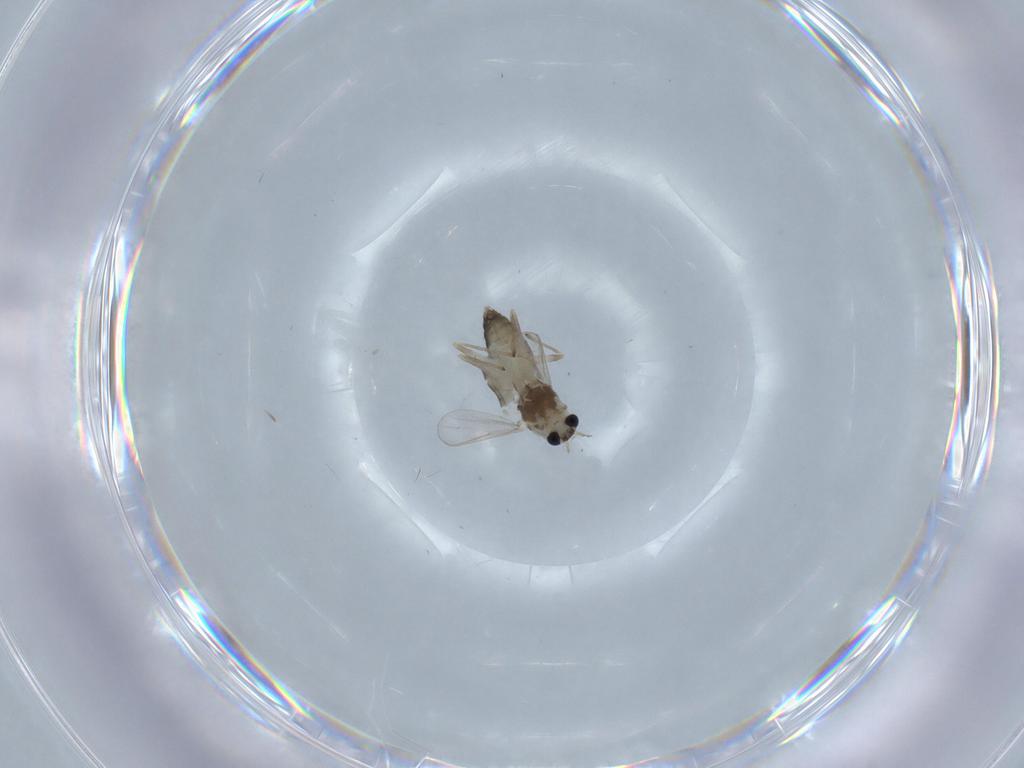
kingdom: Animalia
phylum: Arthropoda
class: Insecta
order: Diptera
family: Chironomidae
